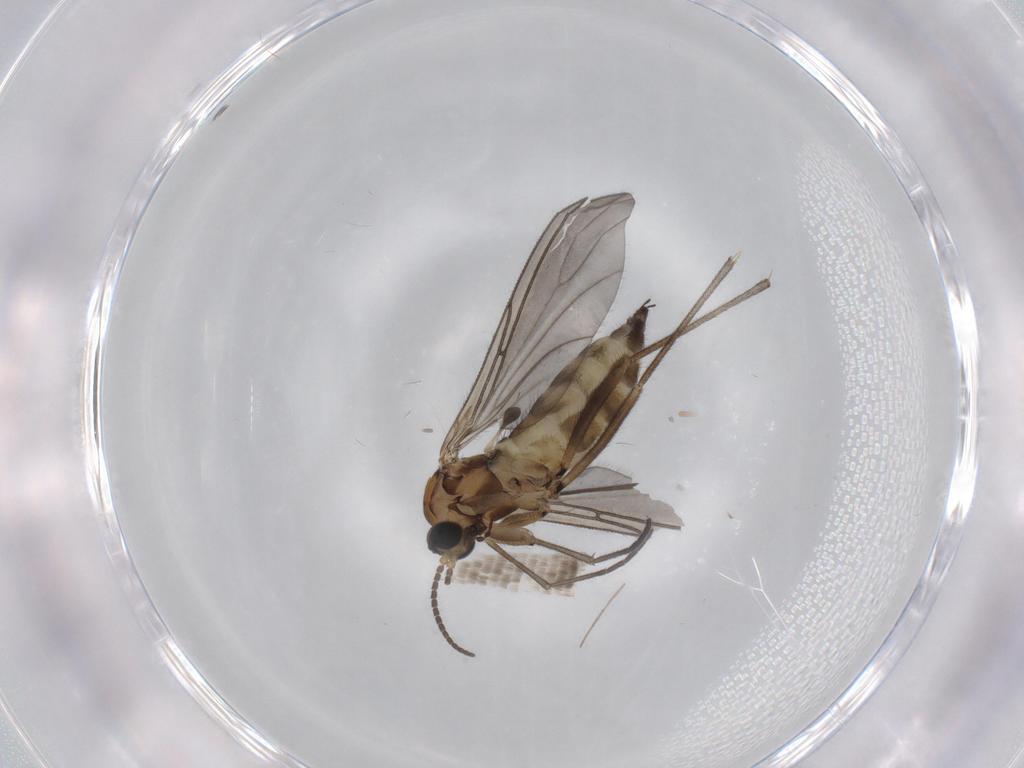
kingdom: Animalia
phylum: Arthropoda
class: Insecta
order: Diptera
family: Sciaridae
